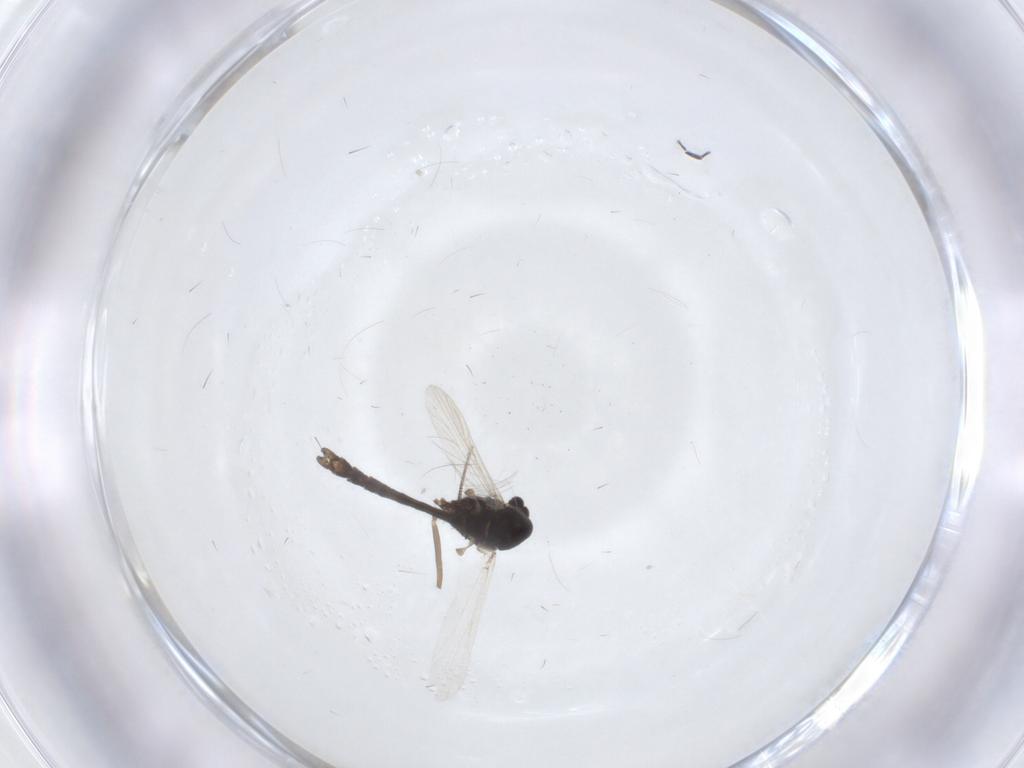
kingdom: Animalia
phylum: Arthropoda
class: Insecta
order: Diptera
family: Chironomidae
